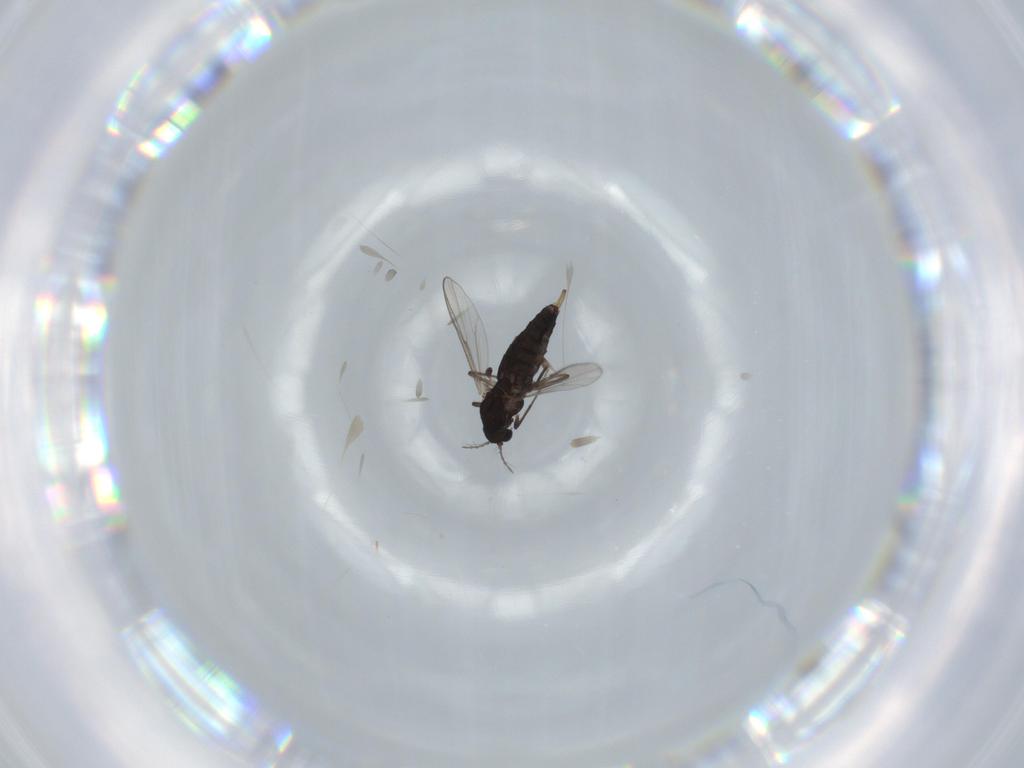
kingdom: Animalia
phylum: Arthropoda
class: Insecta
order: Diptera
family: Chironomidae
